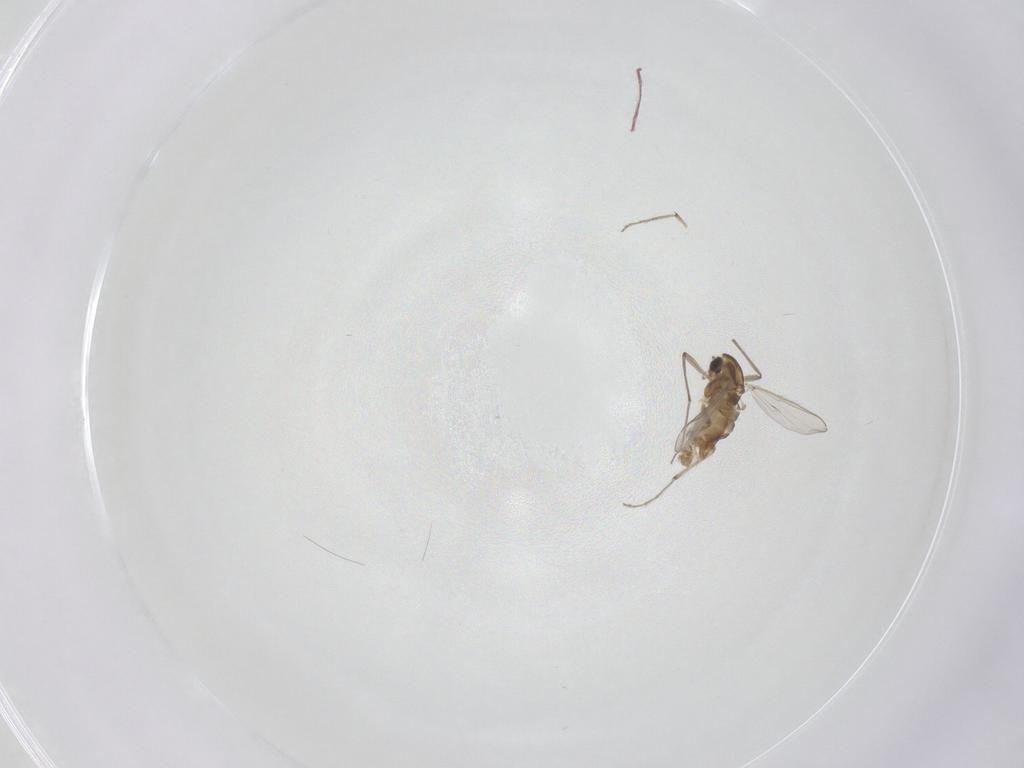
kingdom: Animalia
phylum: Arthropoda
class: Insecta
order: Diptera
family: Chironomidae
